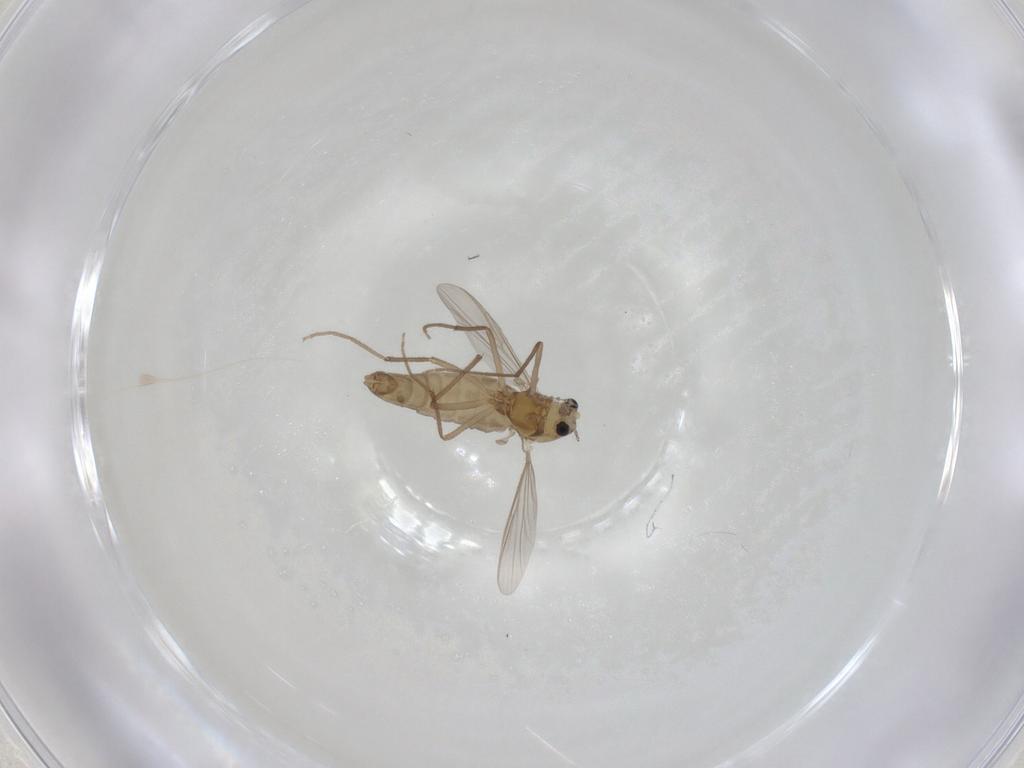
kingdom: Animalia
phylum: Arthropoda
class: Insecta
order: Diptera
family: Chironomidae
